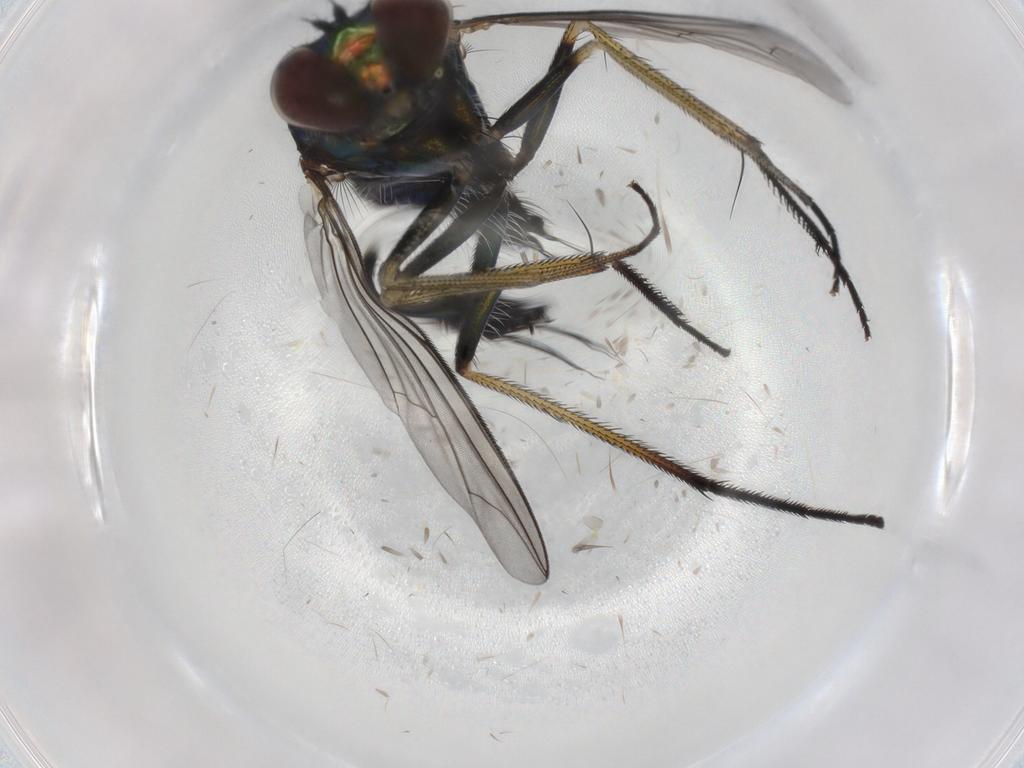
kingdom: Animalia
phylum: Arthropoda
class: Insecta
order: Diptera
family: Dolichopodidae
